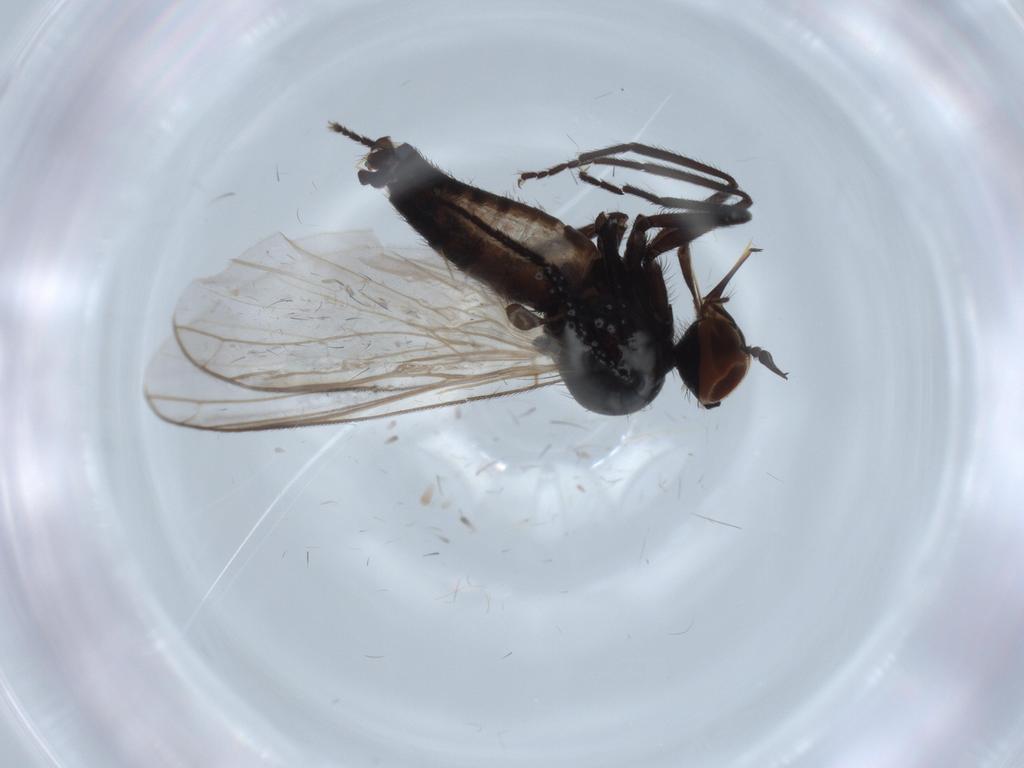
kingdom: Animalia
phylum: Arthropoda
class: Insecta
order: Diptera
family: Empididae
